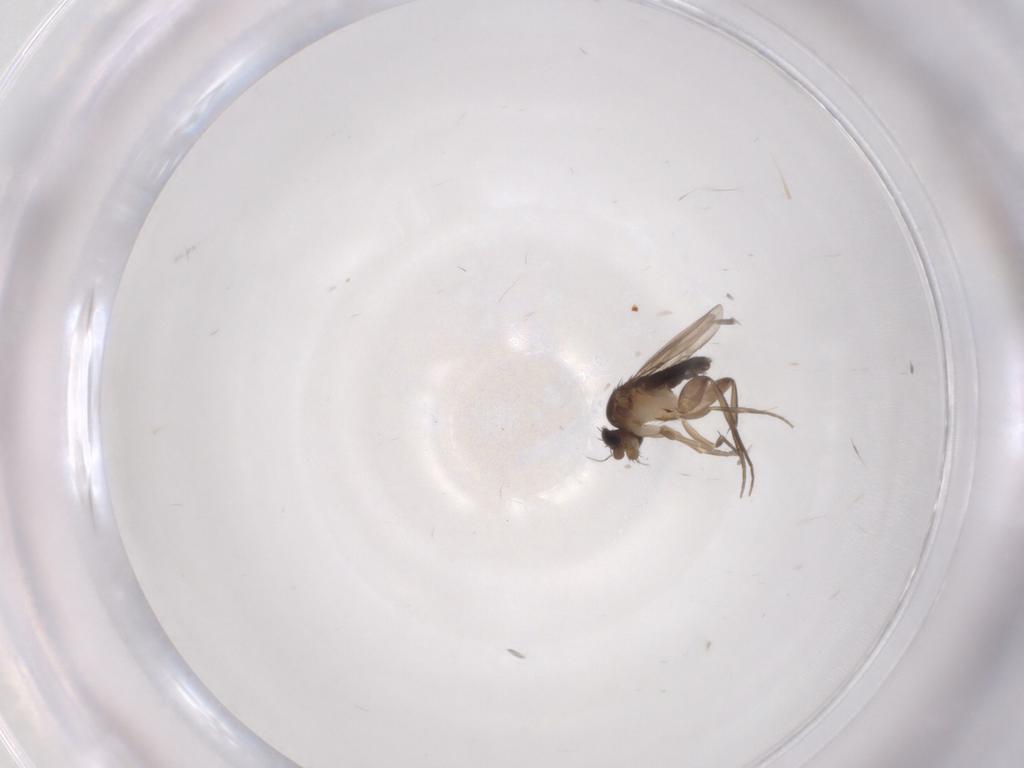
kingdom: Animalia
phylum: Arthropoda
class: Insecta
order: Diptera
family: Phoridae
